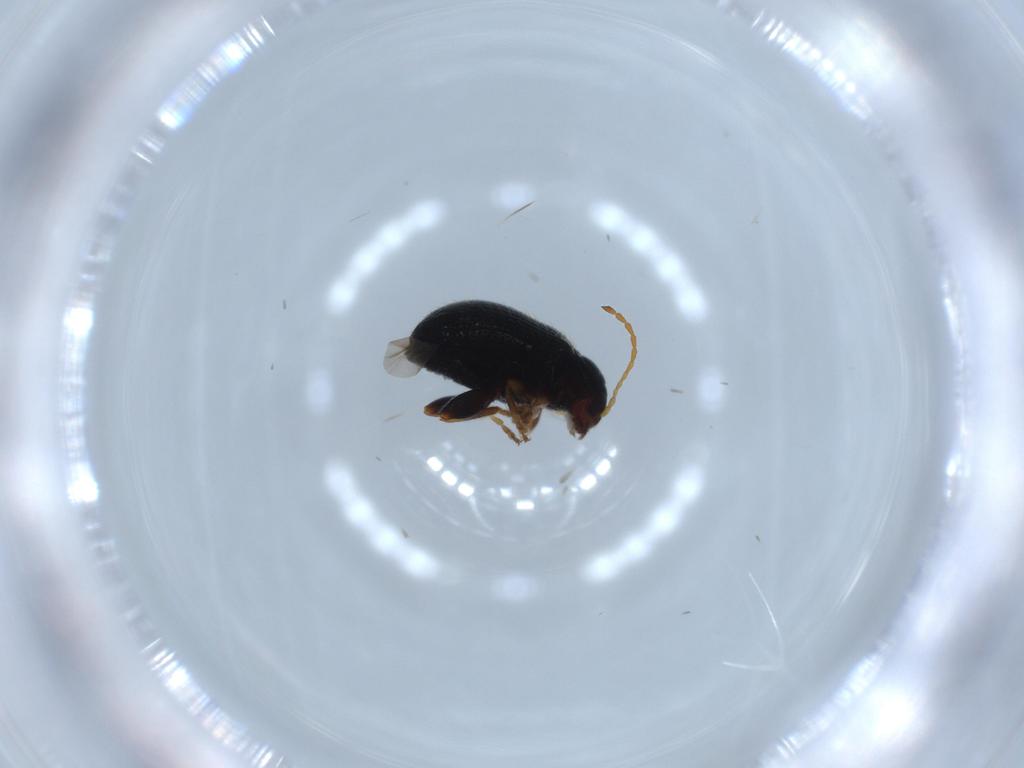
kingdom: Animalia
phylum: Arthropoda
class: Insecta
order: Coleoptera
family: Chrysomelidae
